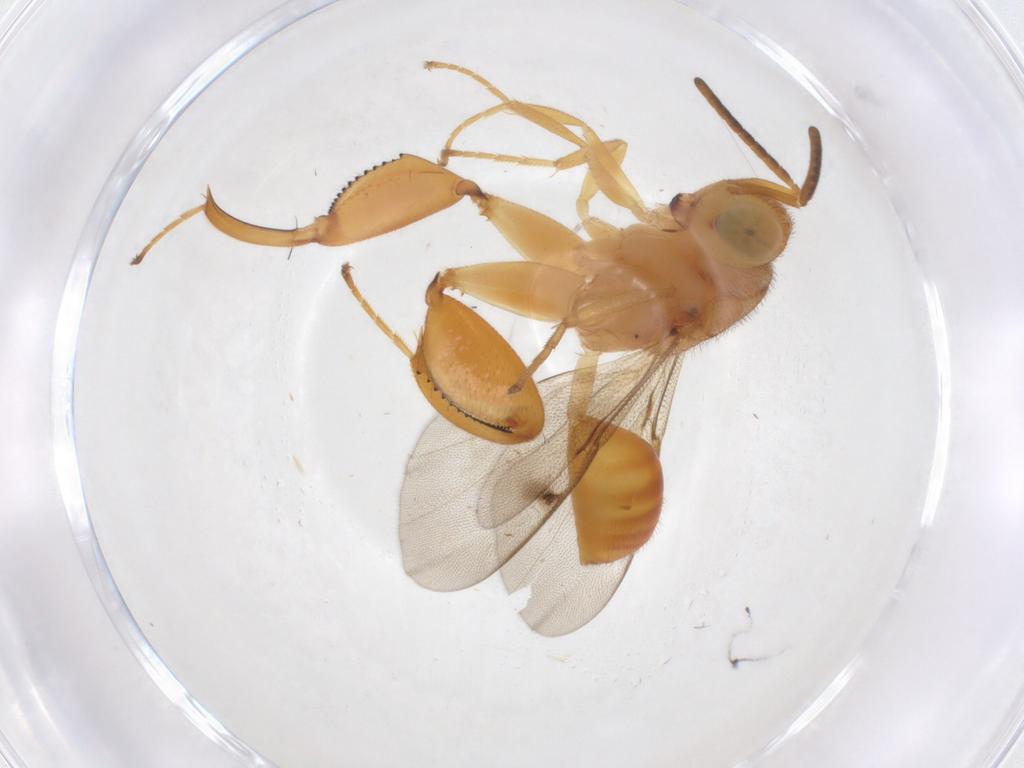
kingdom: Animalia
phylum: Arthropoda
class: Insecta
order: Hymenoptera
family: Chalcididae
